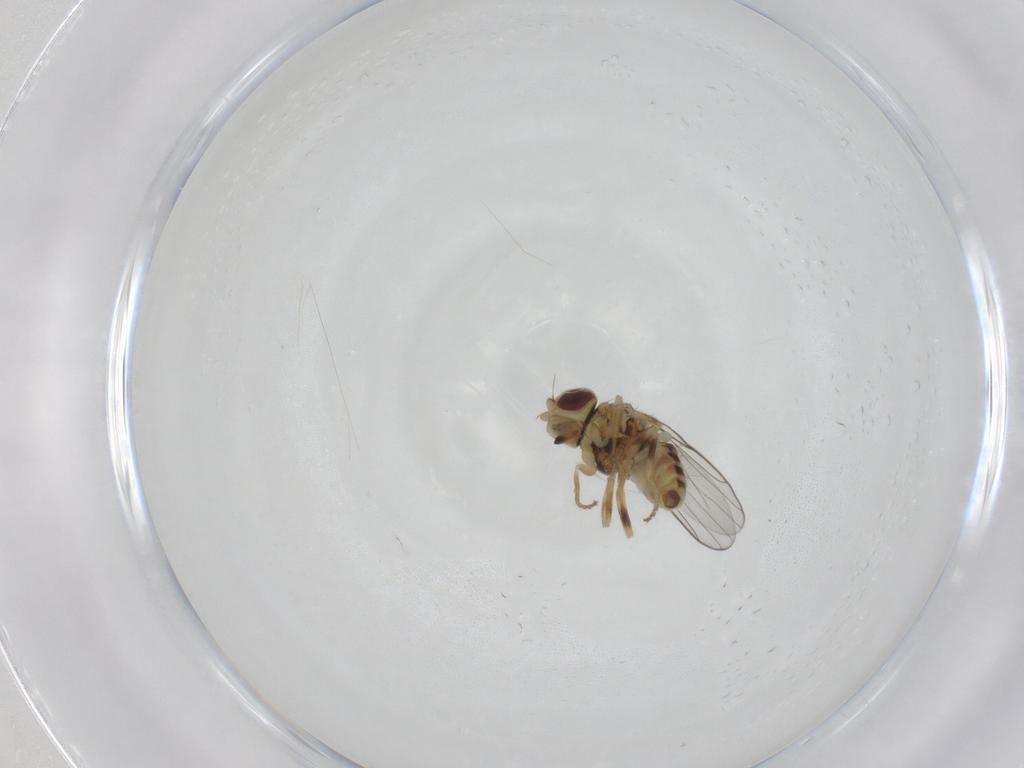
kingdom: Animalia
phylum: Arthropoda
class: Insecta
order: Diptera
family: Chloropidae
